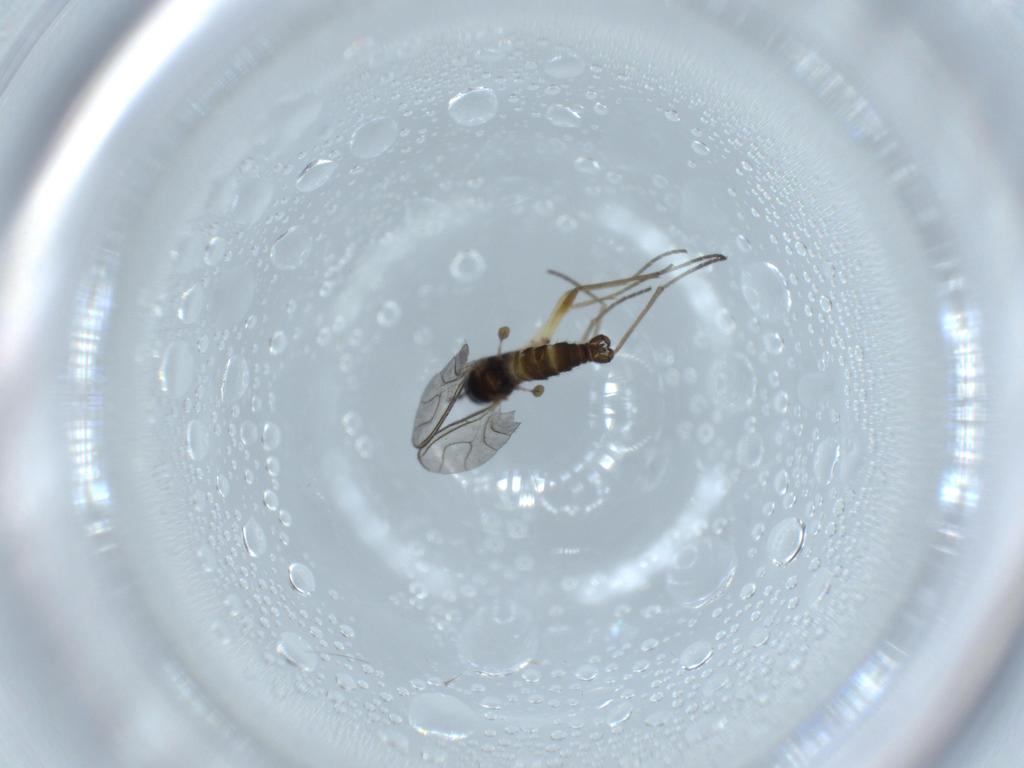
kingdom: Animalia
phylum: Arthropoda
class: Insecta
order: Diptera
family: Sciaridae
